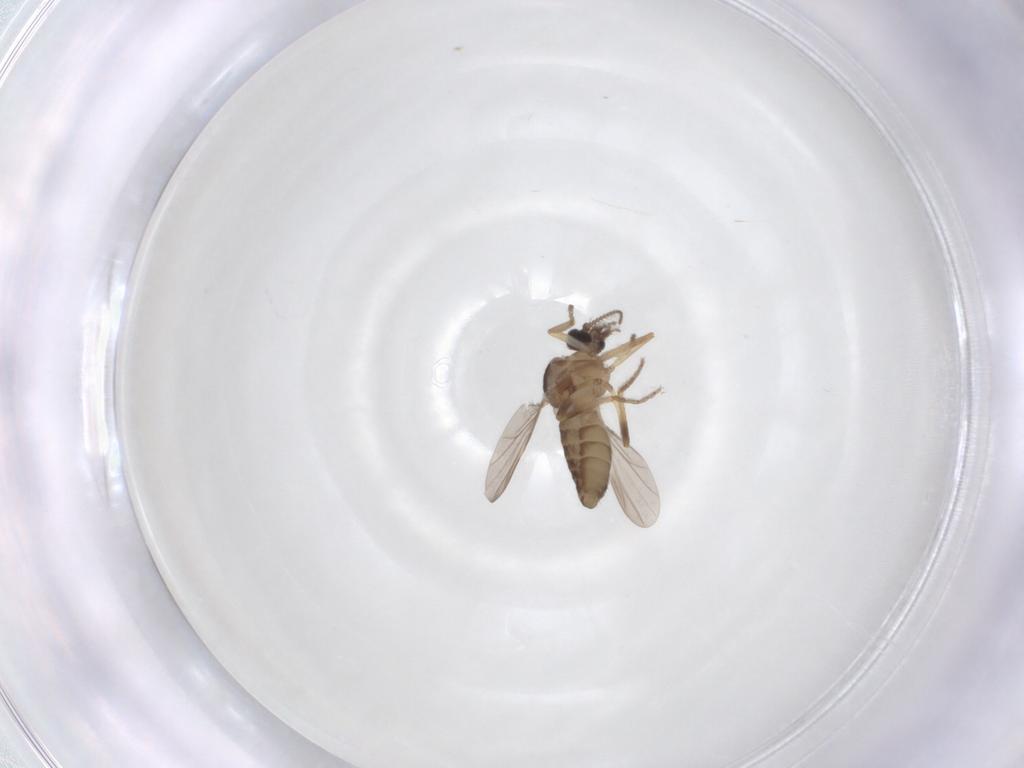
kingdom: Animalia
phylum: Arthropoda
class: Insecta
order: Diptera
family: Ceratopogonidae
